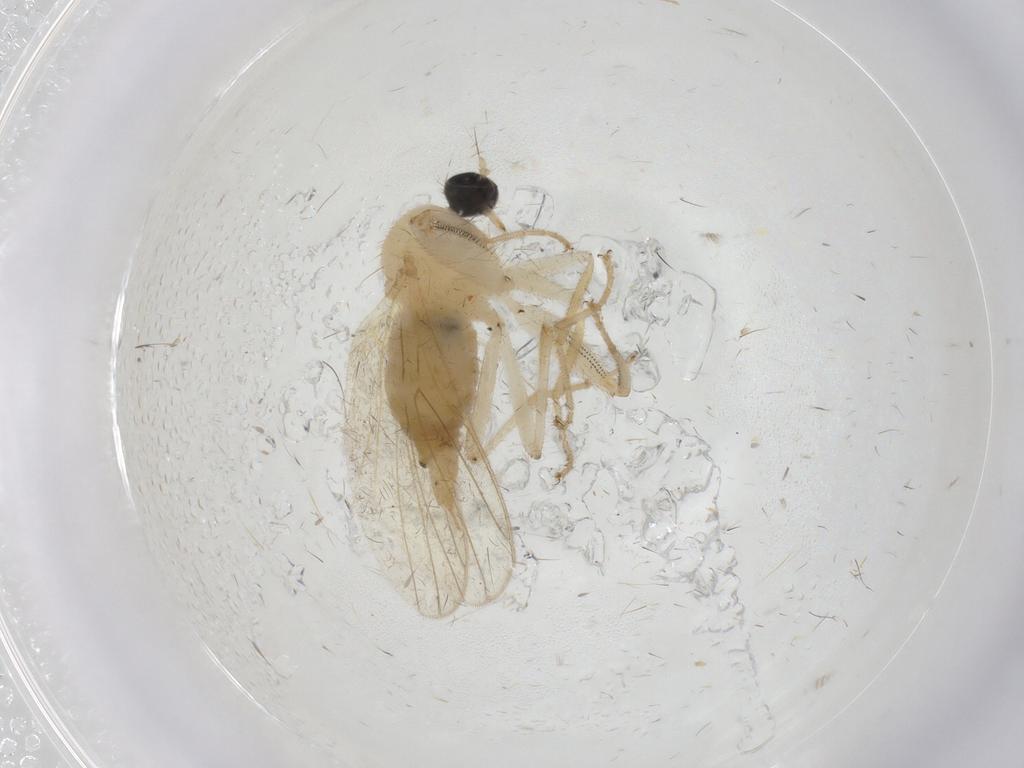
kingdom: Animalia
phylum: Arthropoda
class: Insecta
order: Diptera
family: Hybotidae
